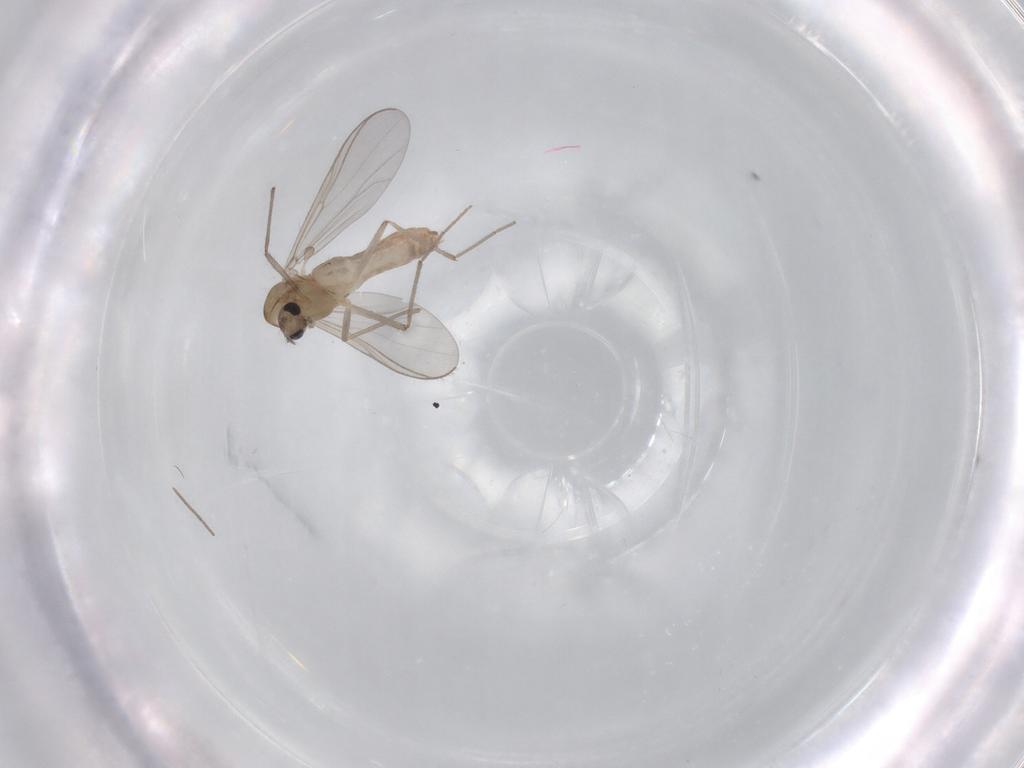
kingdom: Animalia
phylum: Arthropoda
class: Insecta
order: Diptera
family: Chironomidae
